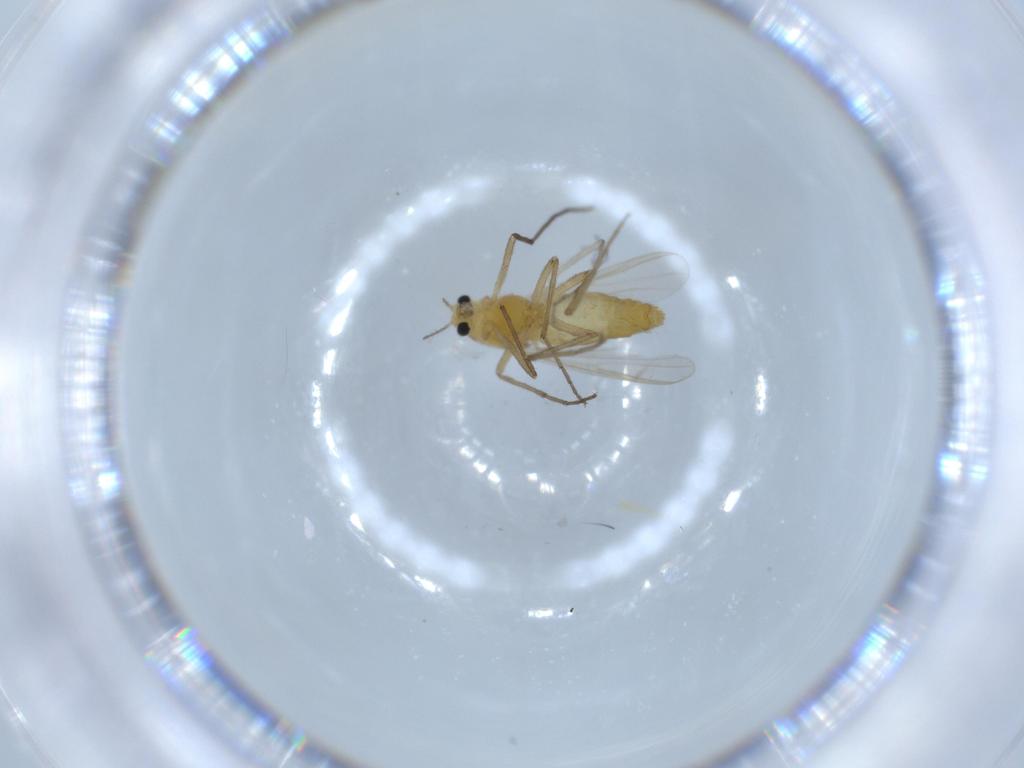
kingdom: Animalia
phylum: Arthropoda
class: Insecta
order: Diptera
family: Chironomidae
